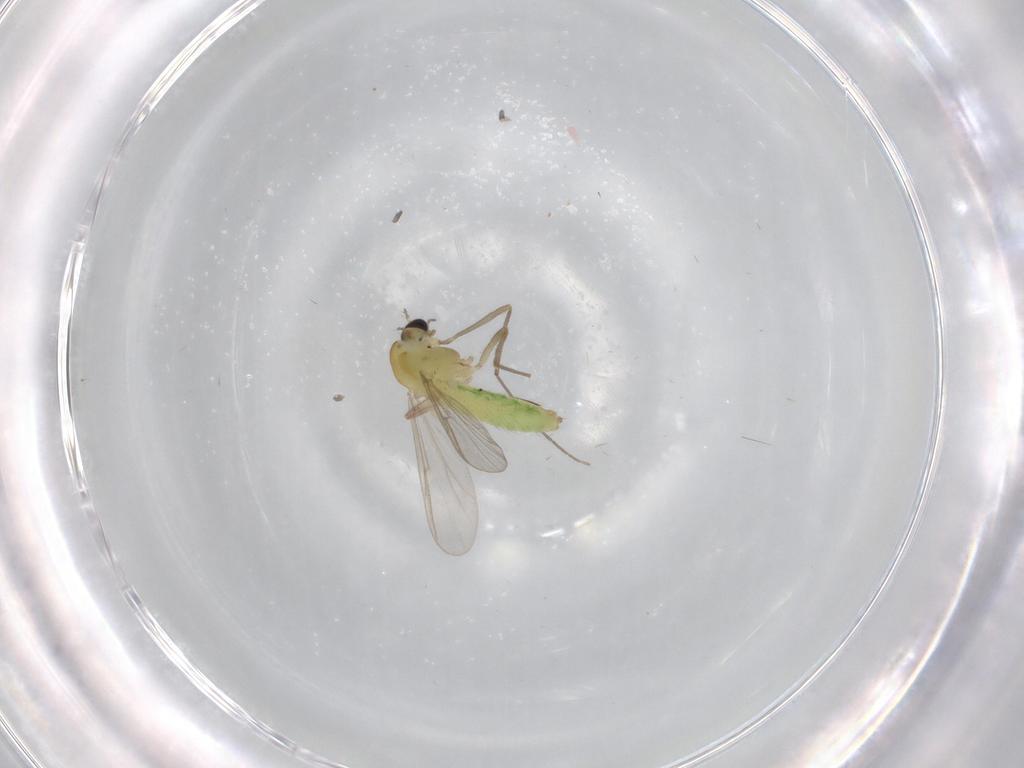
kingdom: Animalia
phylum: Arthropoda
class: Insecta
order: Diptera
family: Chironomidae
